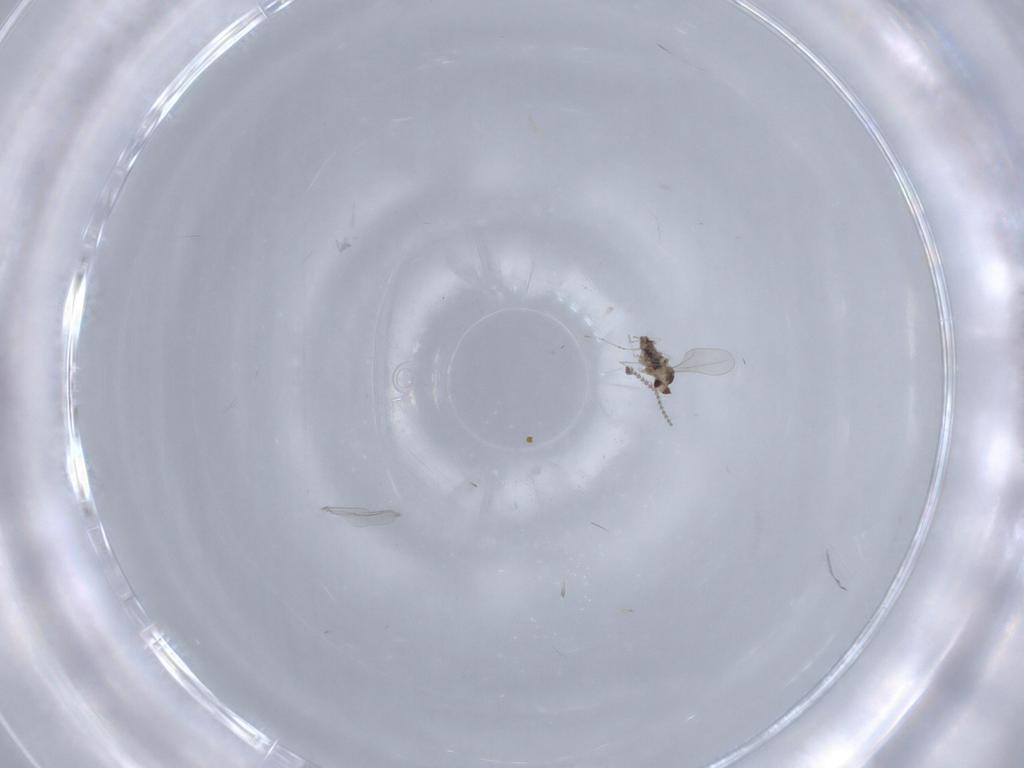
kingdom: Animalia
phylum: Arthropoda
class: Insecta
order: Diptera
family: Cecidomyiidae
